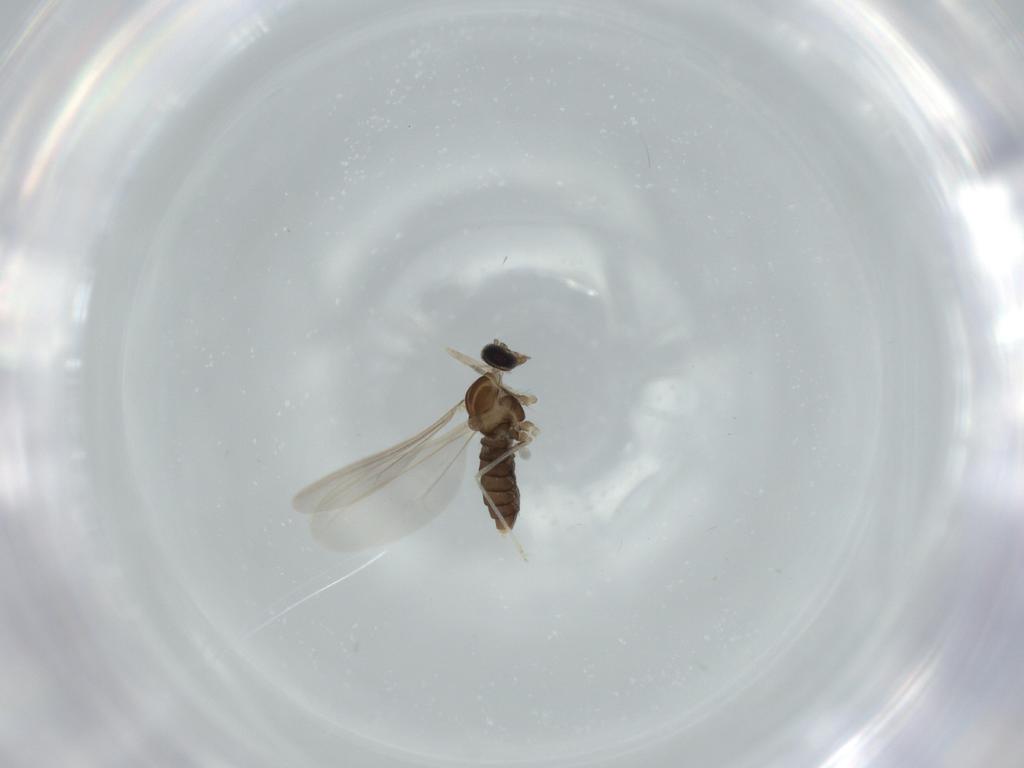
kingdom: Animalia
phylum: Arthropoda
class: Insecta
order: Diptera
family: Cecidomyiidae
